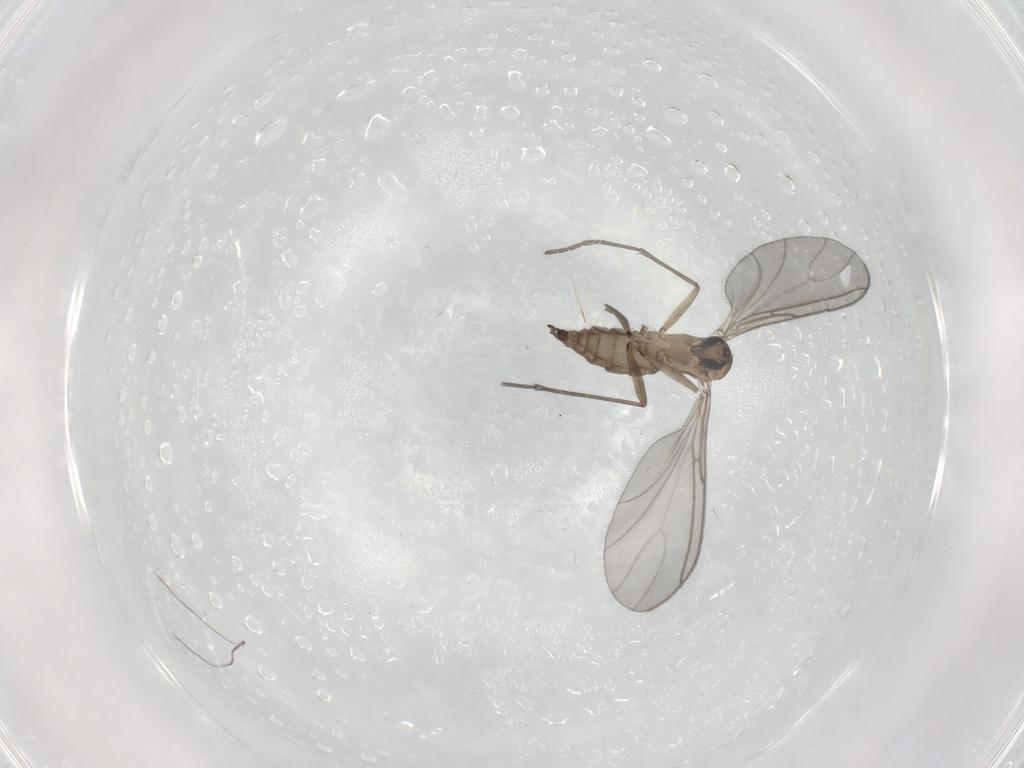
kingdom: Animalia
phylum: Arthropoda
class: Insecta
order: Diptera
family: Sciaridae
